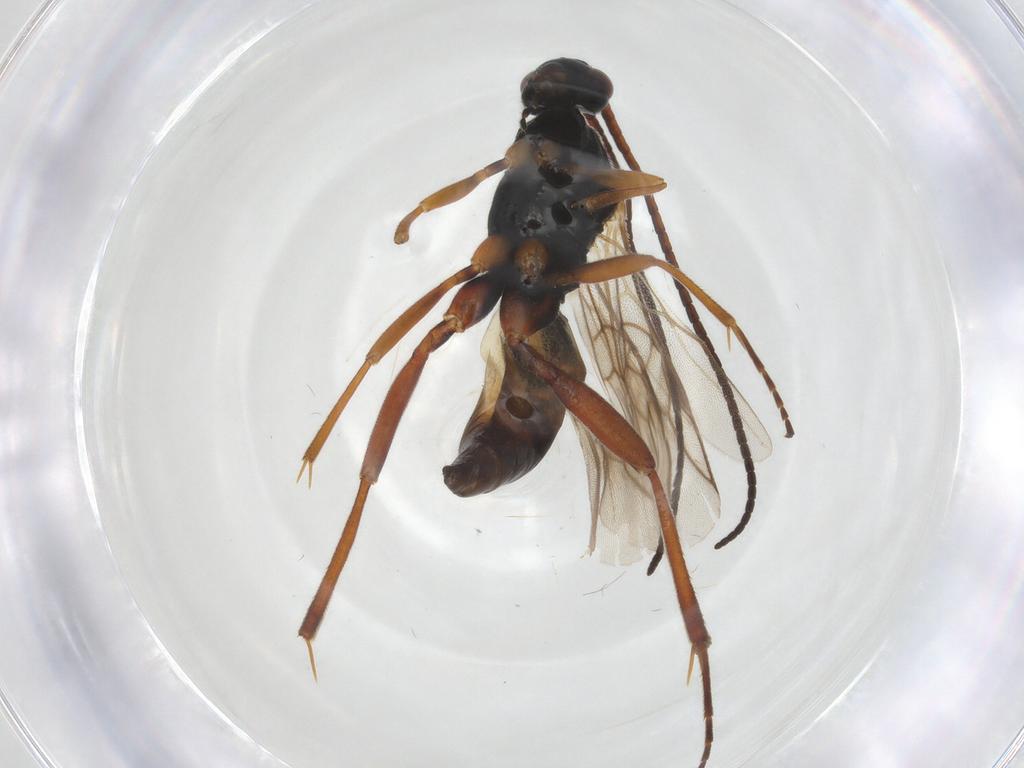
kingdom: Animalia
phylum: Arthropoda
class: Insecta
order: Hymenoptera
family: Braconidae
